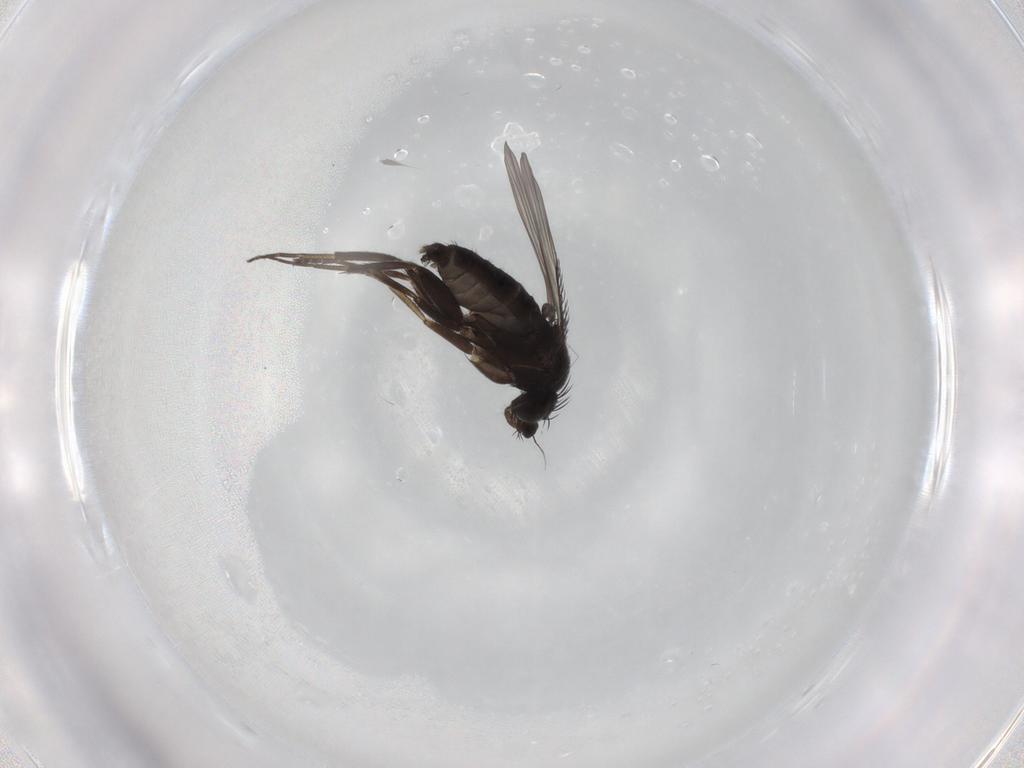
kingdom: Animalia
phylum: Arthropoda
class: Insecta
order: Diptera
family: Phoridae
